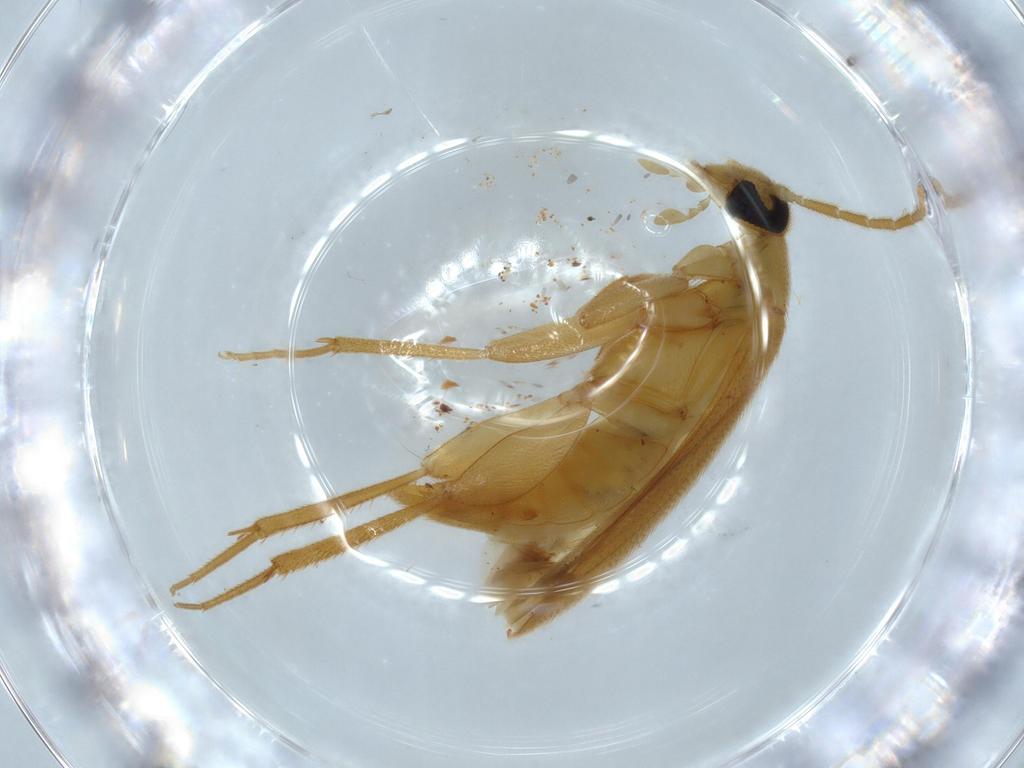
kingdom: Animalia
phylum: Arthropoda
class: Insecta
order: Coleoptera
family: Scraptiidae
